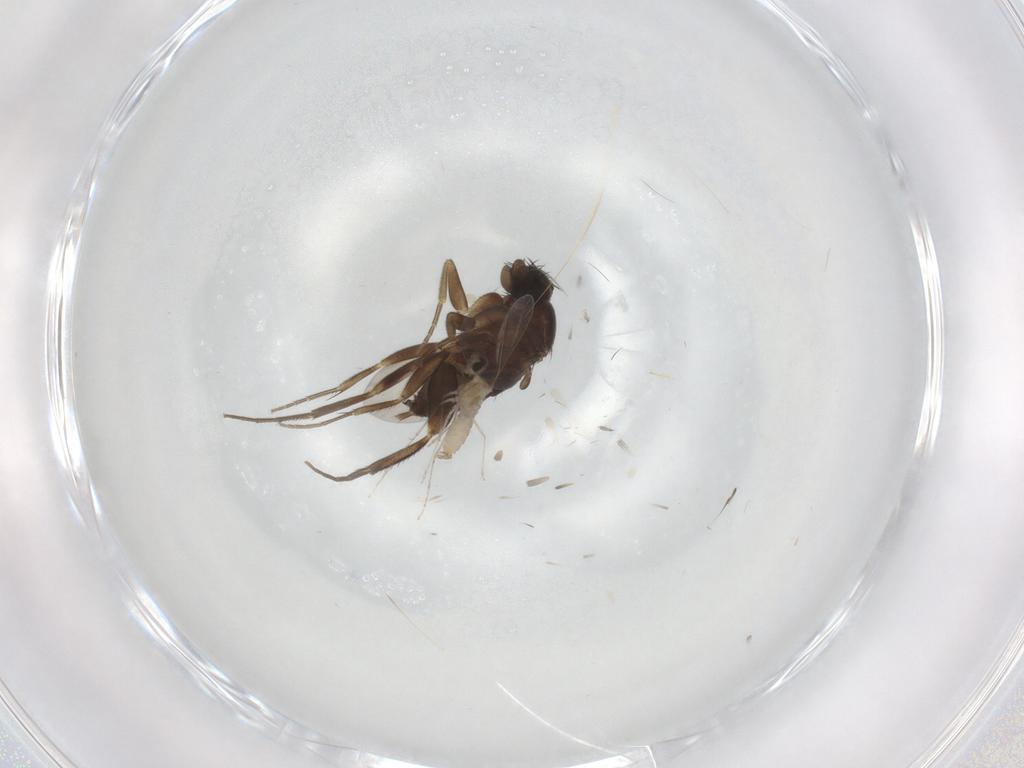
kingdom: Animalia
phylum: Arthropoda
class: Insecta
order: Diptera
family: Phoridae
